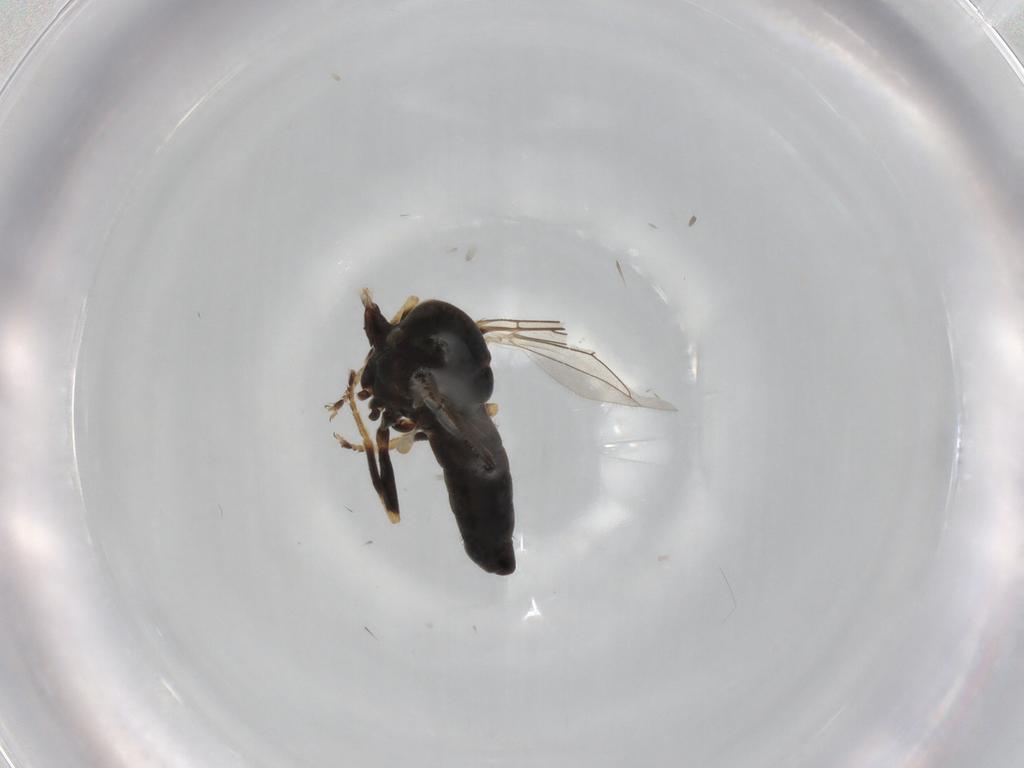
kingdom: Animalia
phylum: Arthropoda
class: Insecta
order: Diptera
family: Pipunculidae
